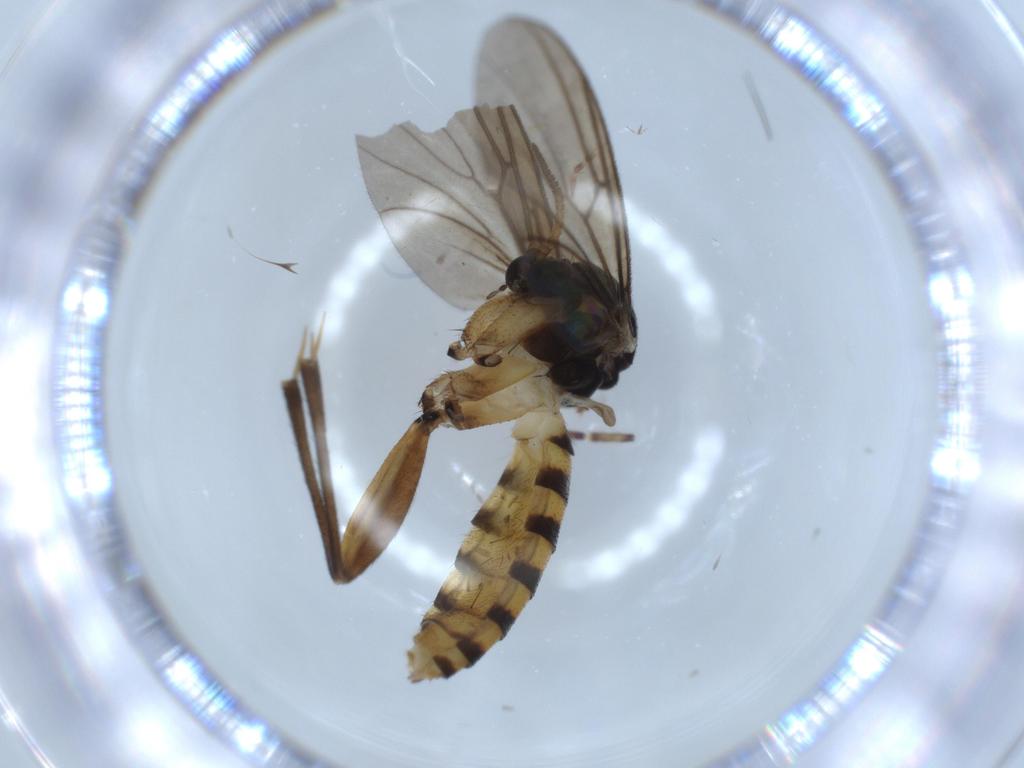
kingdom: Animalia
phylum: Arthropoda
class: Insecta
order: Diptera
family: Mycetophilidae
